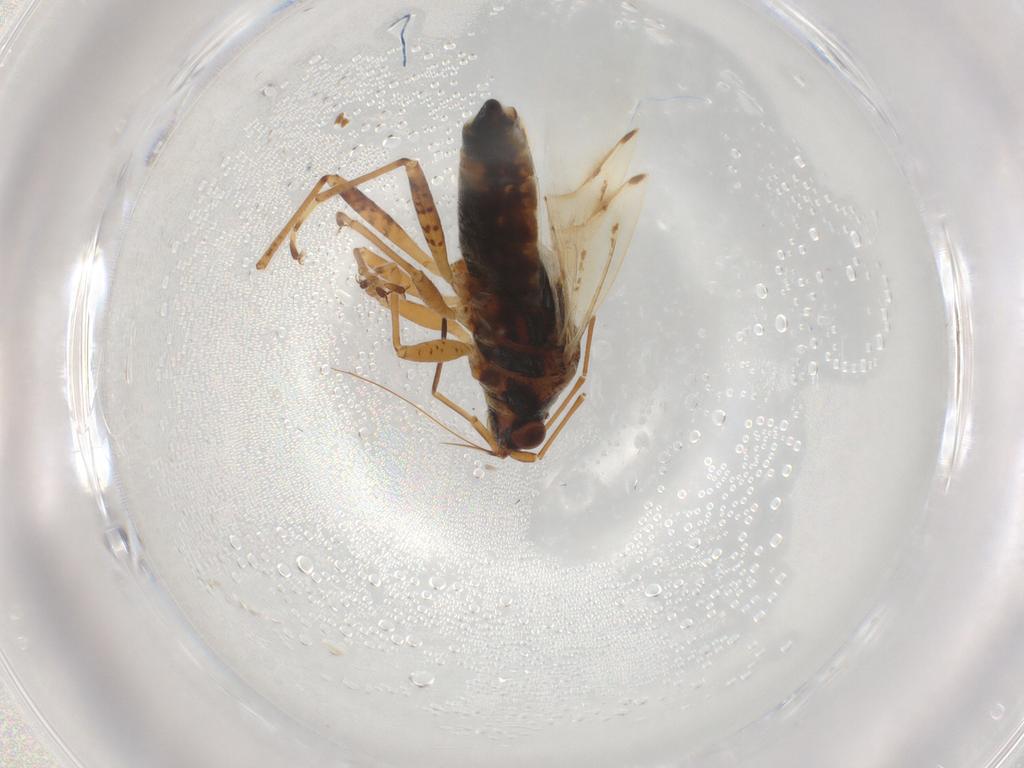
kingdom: Animalia
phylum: Arthropoda
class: Insecta
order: Hemiptera
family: Lygaeidae
